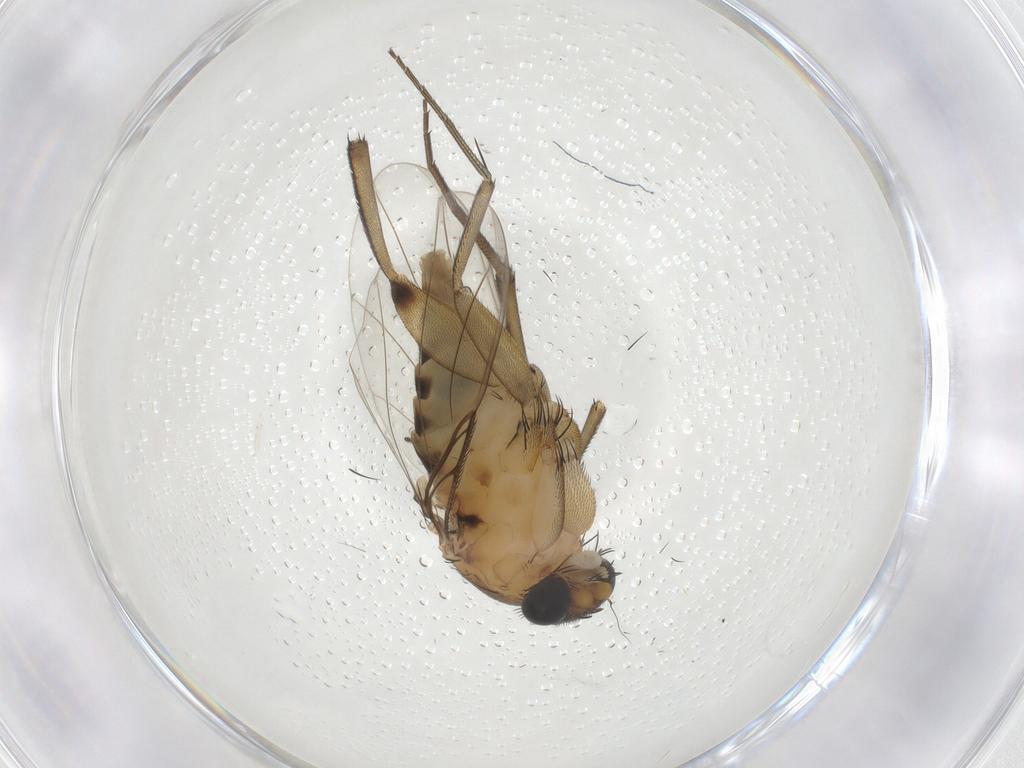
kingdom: Animalia
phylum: Arthropoda
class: Insecta
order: Diptera
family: Phoridae
